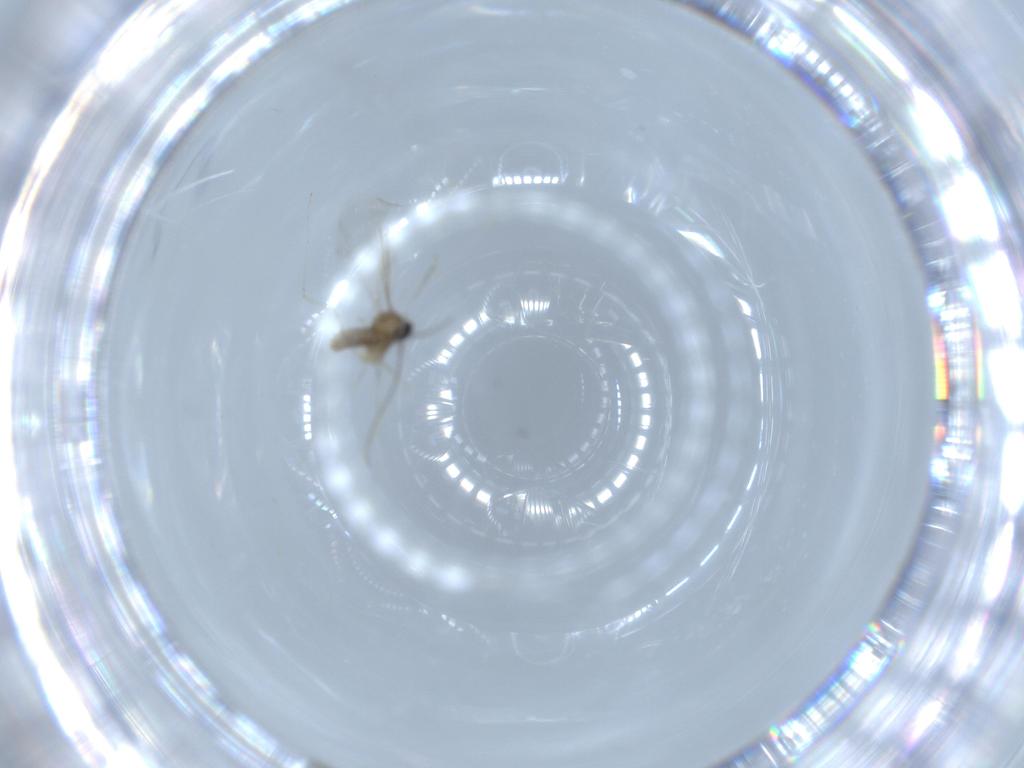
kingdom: Animalia
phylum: Arthropoda
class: Insecta
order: Diptera
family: Cecidomyiidae
